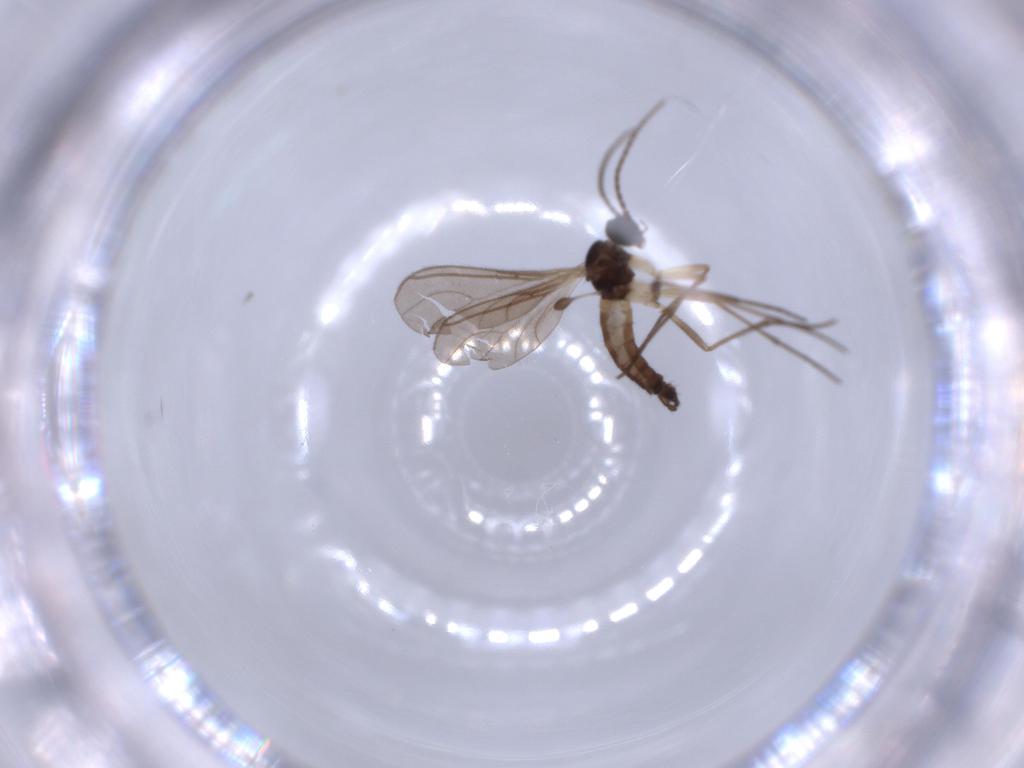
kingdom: Animalia
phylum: Arthropoda
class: Insecta
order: Diptera
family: Sciaridae
